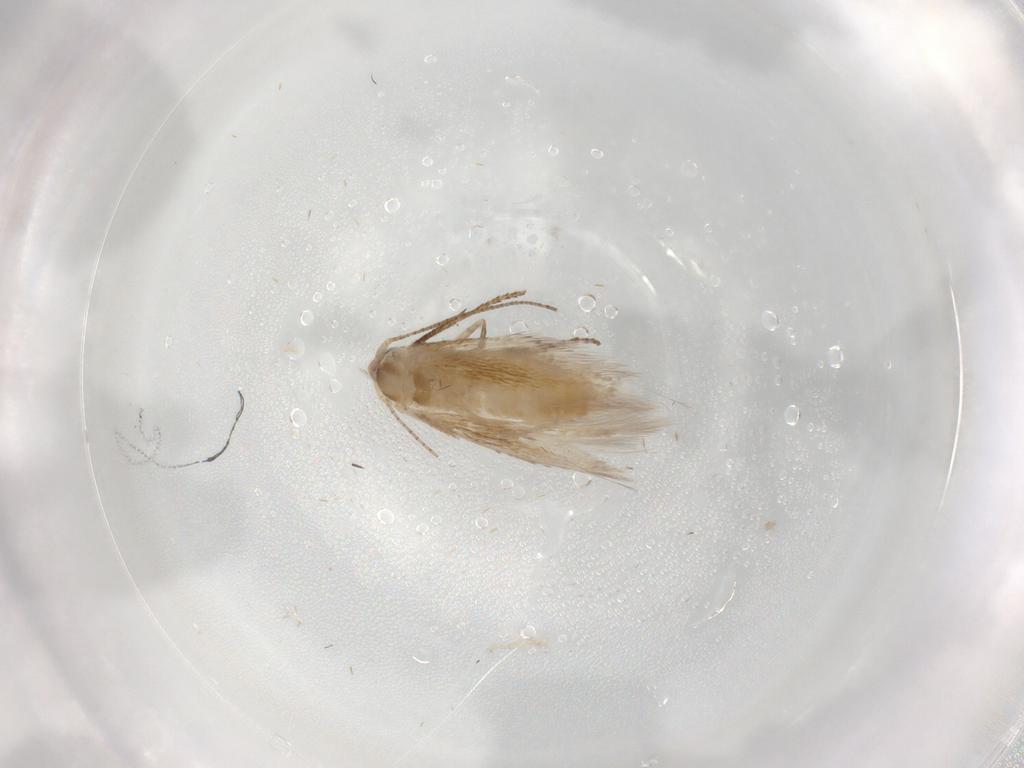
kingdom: Animalia
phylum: Arthropoda
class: Insecta
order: Lepidoptera
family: Bucculatricidae
